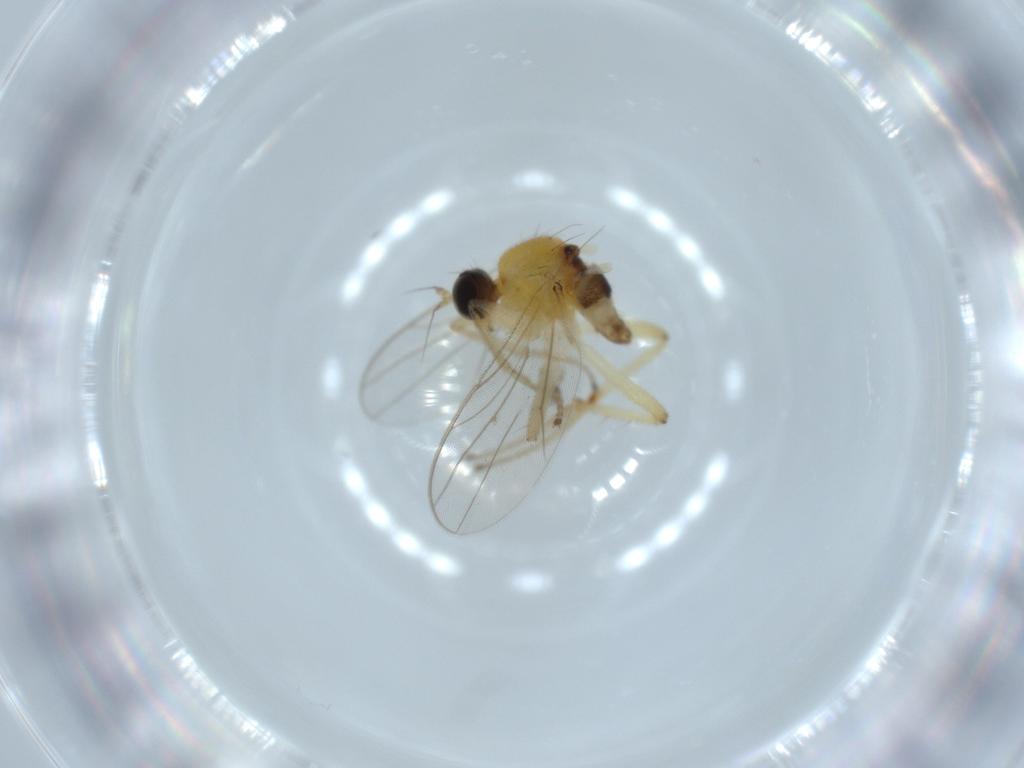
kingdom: Animalia
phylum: Arthropoda
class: Insecta
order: Diptera
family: Hybotidae
